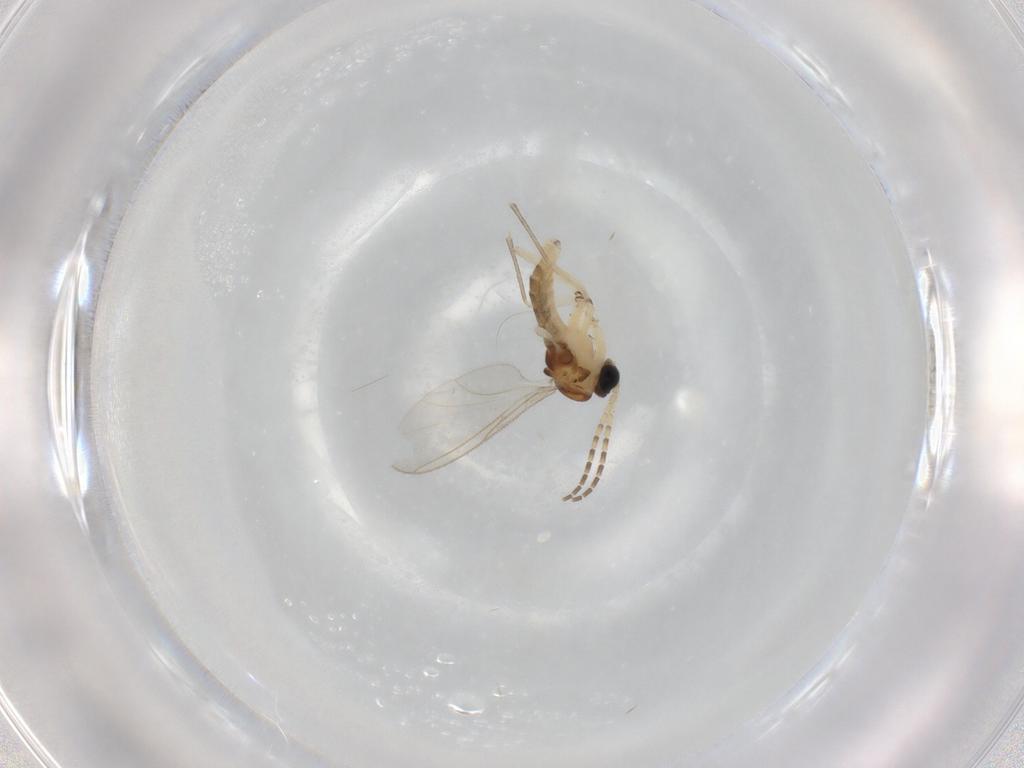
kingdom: Animalia
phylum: Arthropoda
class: Insecta
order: Diptera
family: Sciaridae
